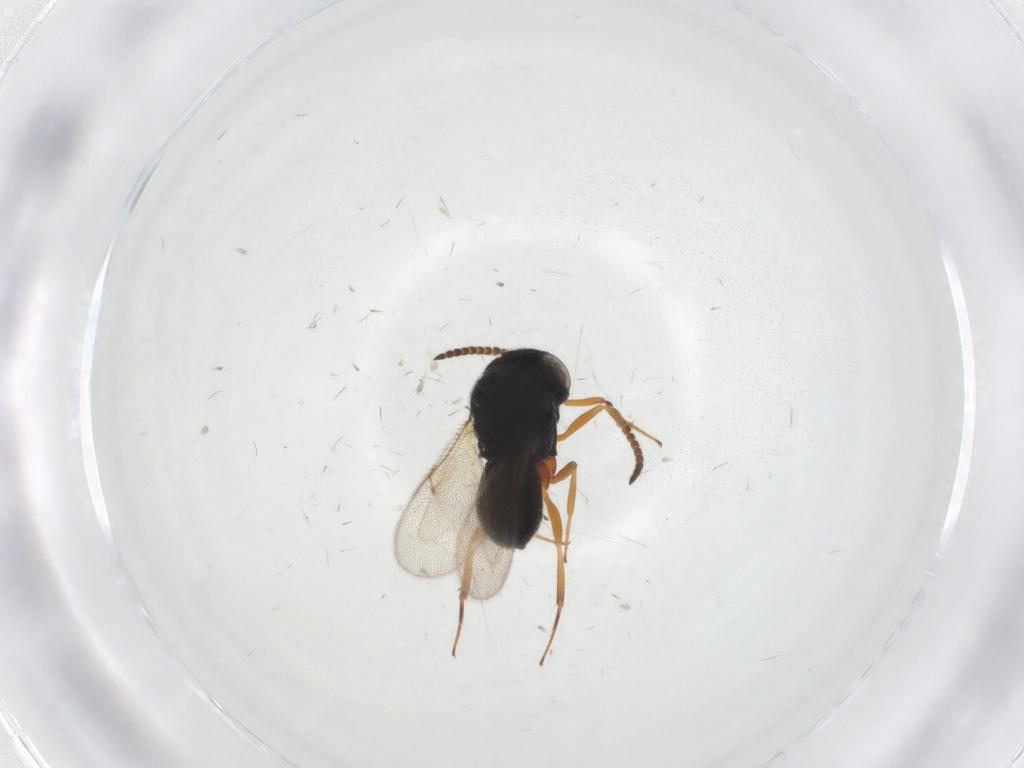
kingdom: Animalia
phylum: Arthropoda
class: Insecta
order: Hymenoptera
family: Scelionidae
